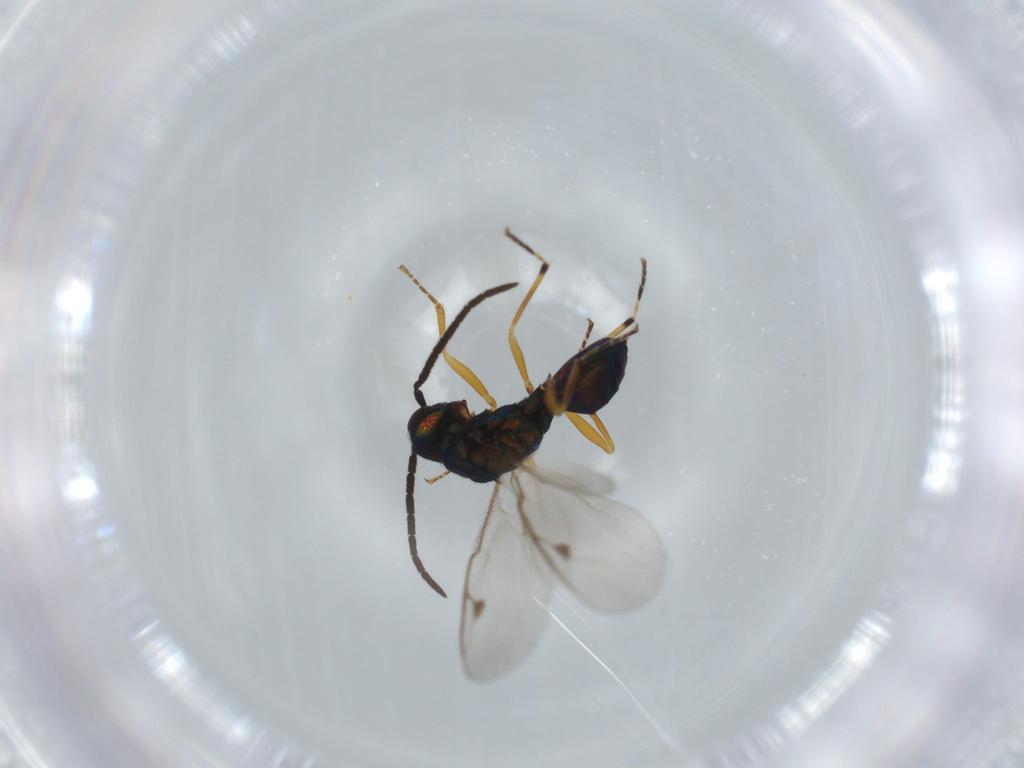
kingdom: Animalia
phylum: Arthropoda
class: Insecta
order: Hymenoptera
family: Pteromalidae
